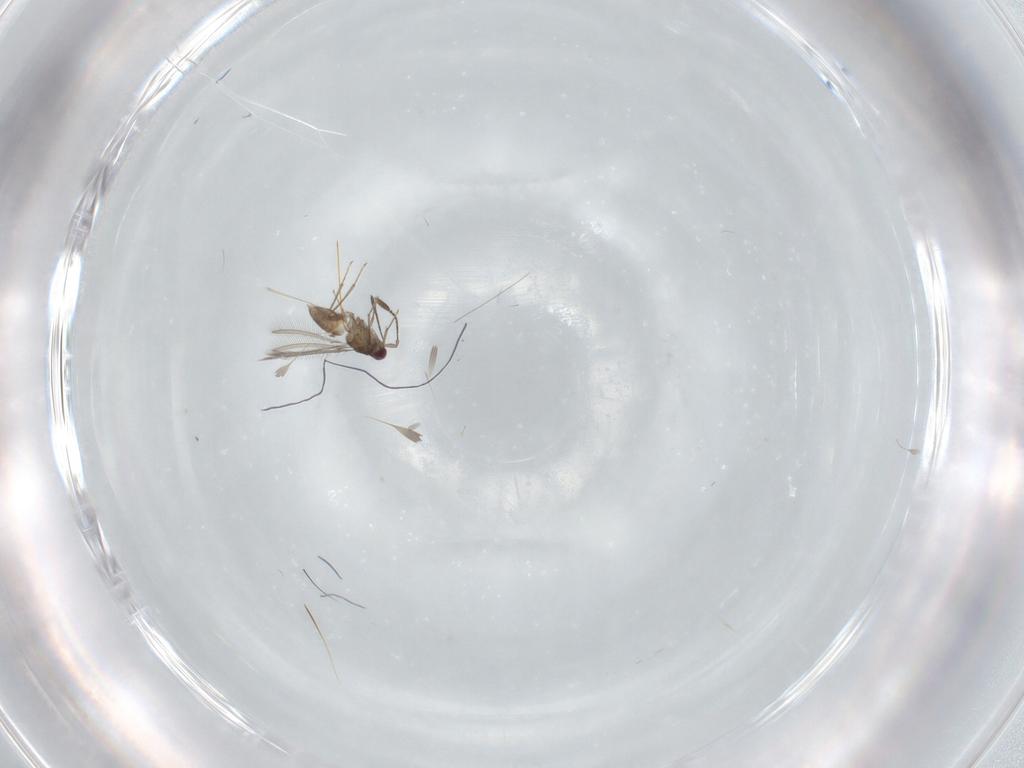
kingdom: Animalia
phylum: Arthropoda
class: Insecta
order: Hymenoptera
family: Mymaridae
